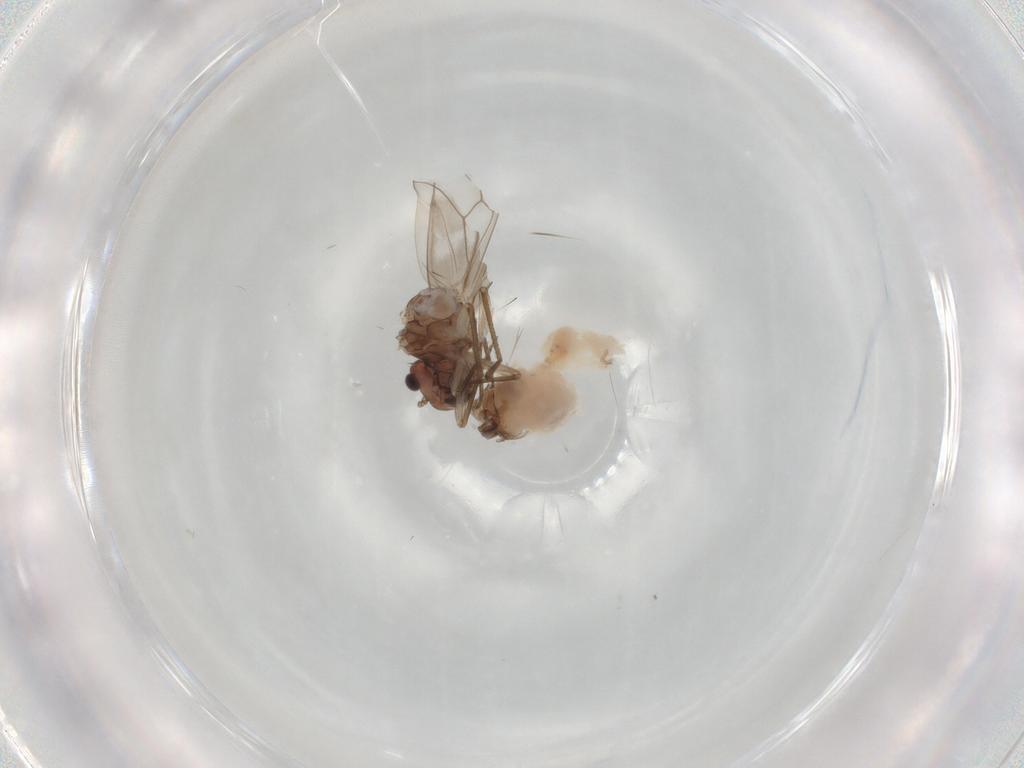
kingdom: Animalia
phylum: Arthropoda
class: Insecta
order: Psocodea
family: Peripsocidae
